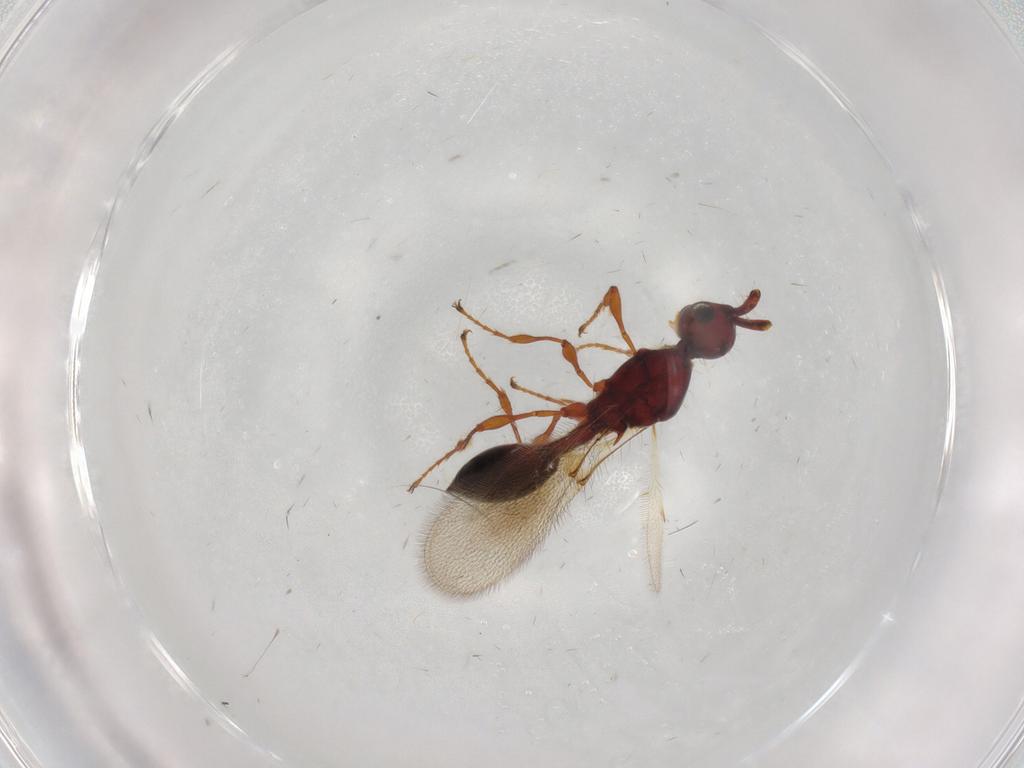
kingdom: Animalia
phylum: Arthropoda
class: Insecta
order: Hymenoptera
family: Diapriidae
